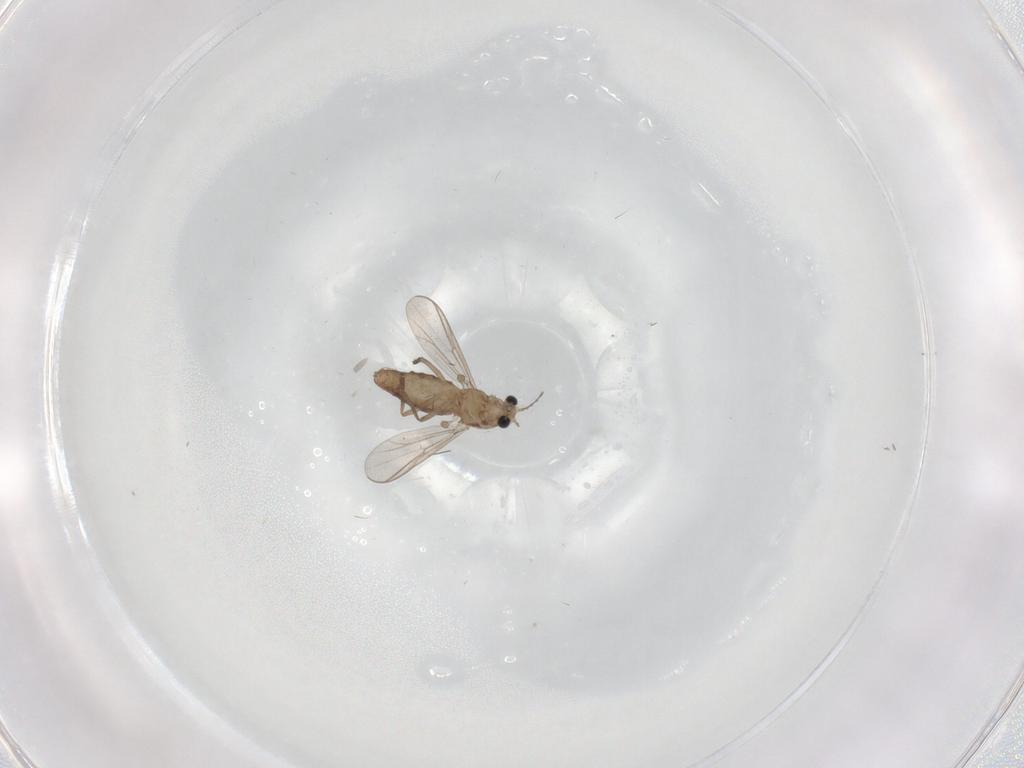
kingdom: Animalia
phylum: Arthropoda
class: Insecta
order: Diptera
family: Chironomidae
